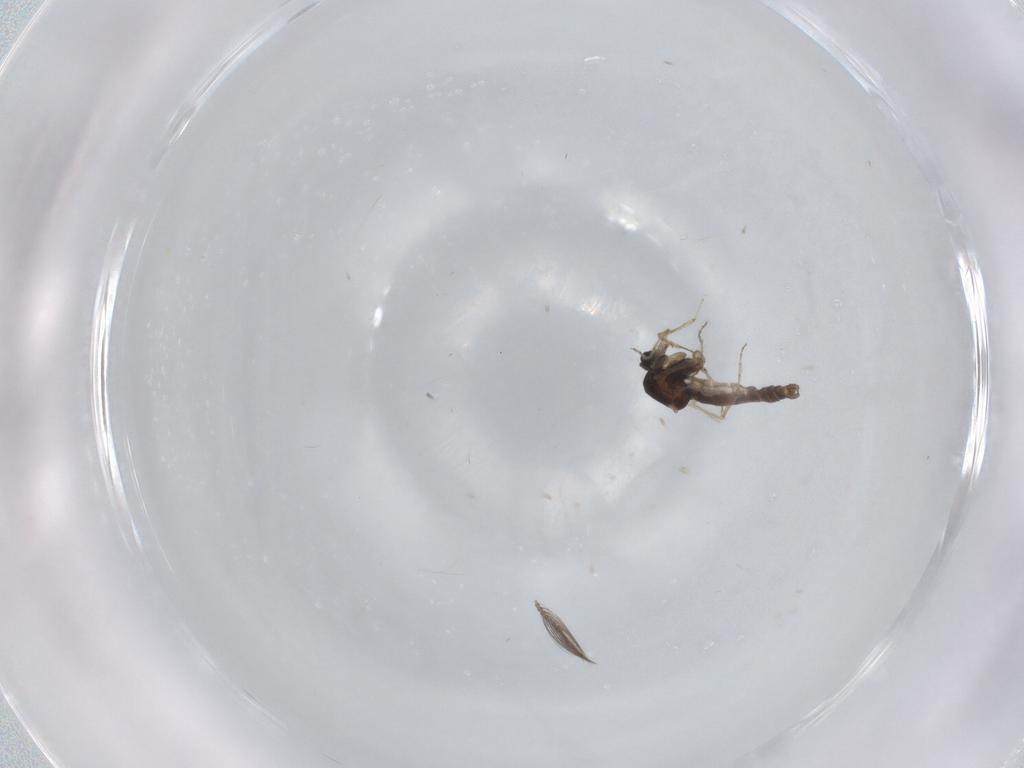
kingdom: Animalia
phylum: Arthropoda
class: Insecta
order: Diptera
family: Ceratopogonidae
